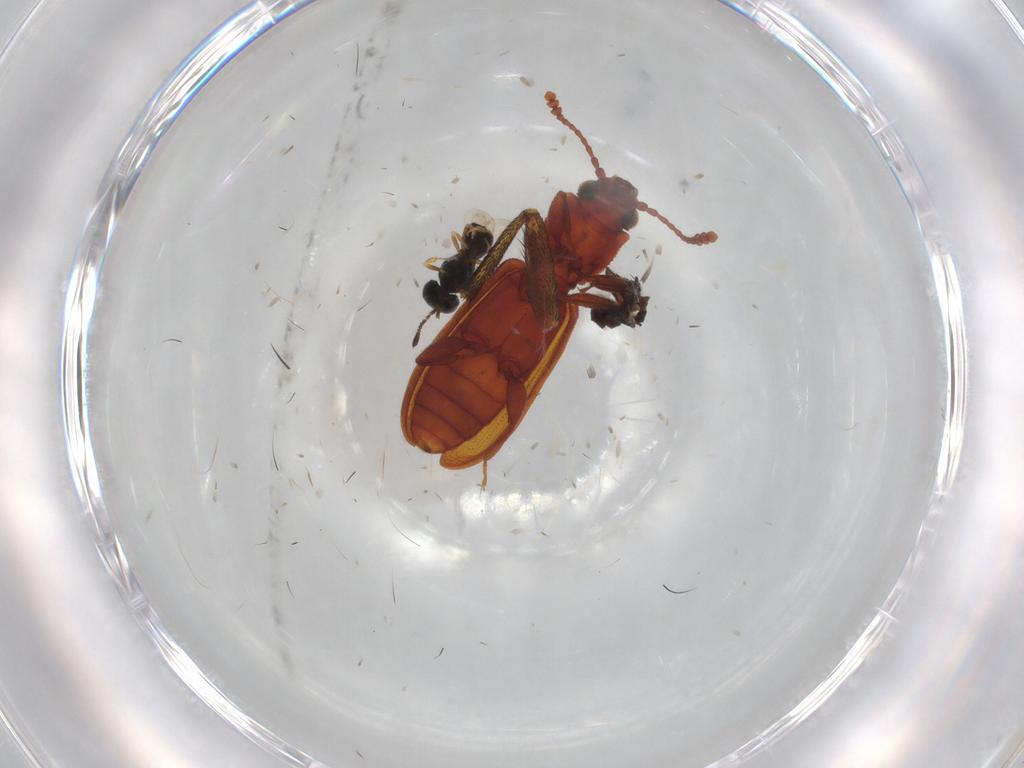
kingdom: Animalia
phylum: Arthropoda
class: Insecta
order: Diptera
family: Muscidae
